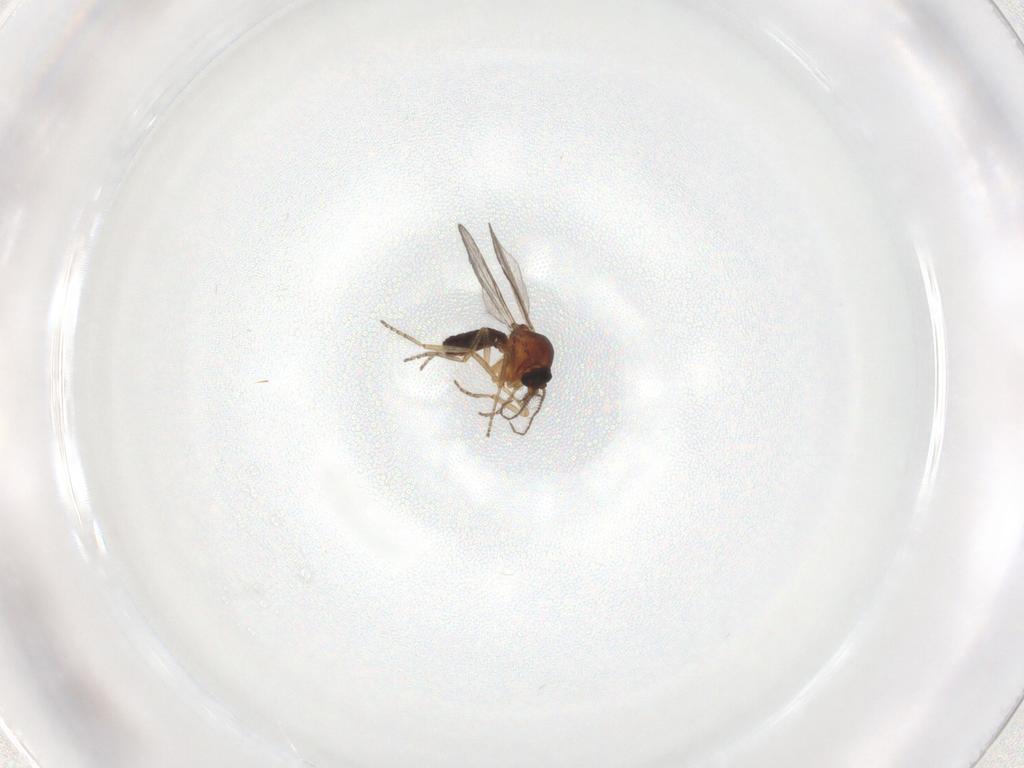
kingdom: Animalia
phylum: Arthropoda
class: Insecta
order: Diptera
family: Ceratopogonidae
